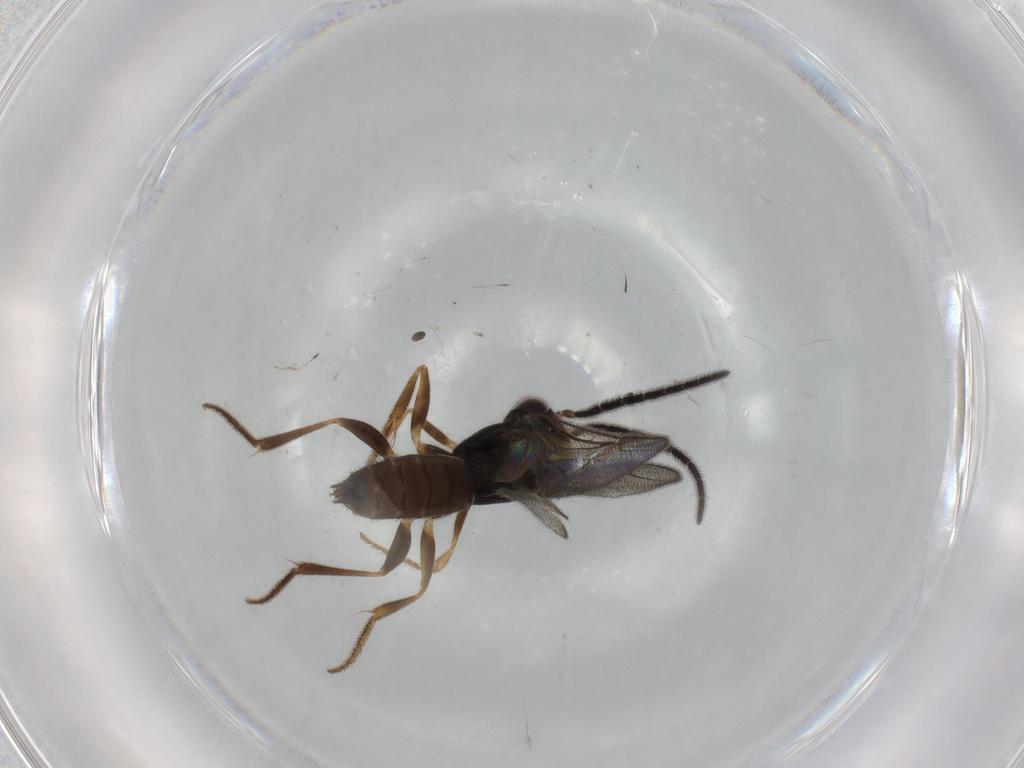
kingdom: Animalia
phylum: Arthropoda
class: Insecta
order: Hymenoptera
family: Dryinidae
